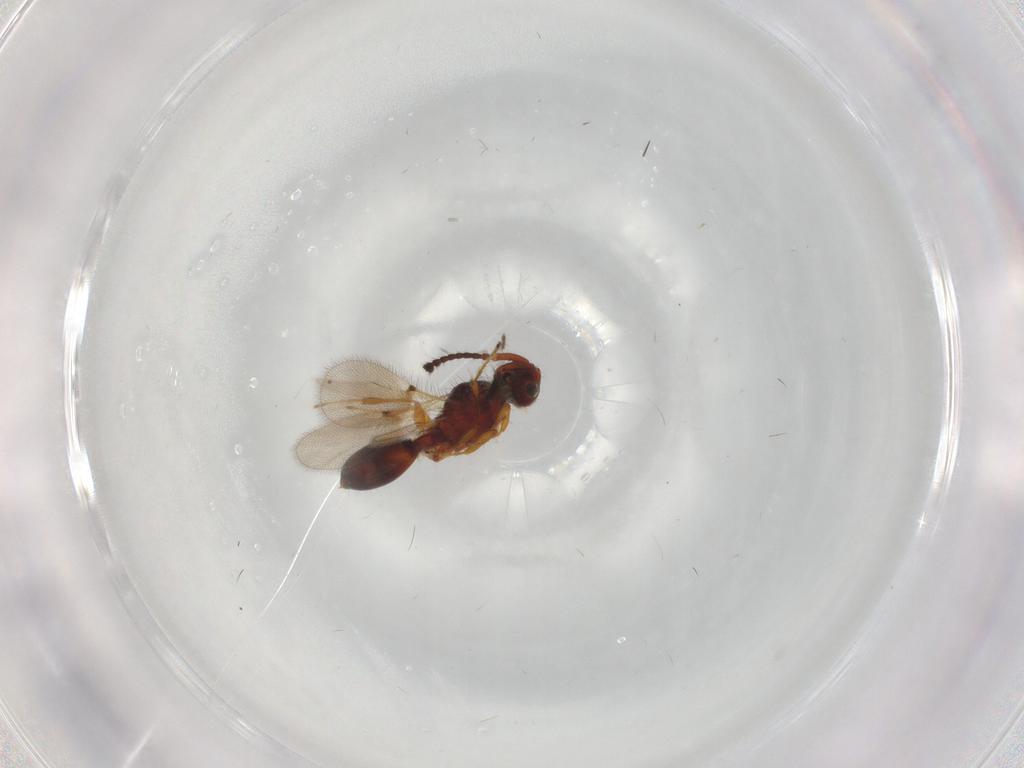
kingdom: Animalia
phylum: Arthropoda
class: Insecta
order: Hymenoptera
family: Diapriidae
